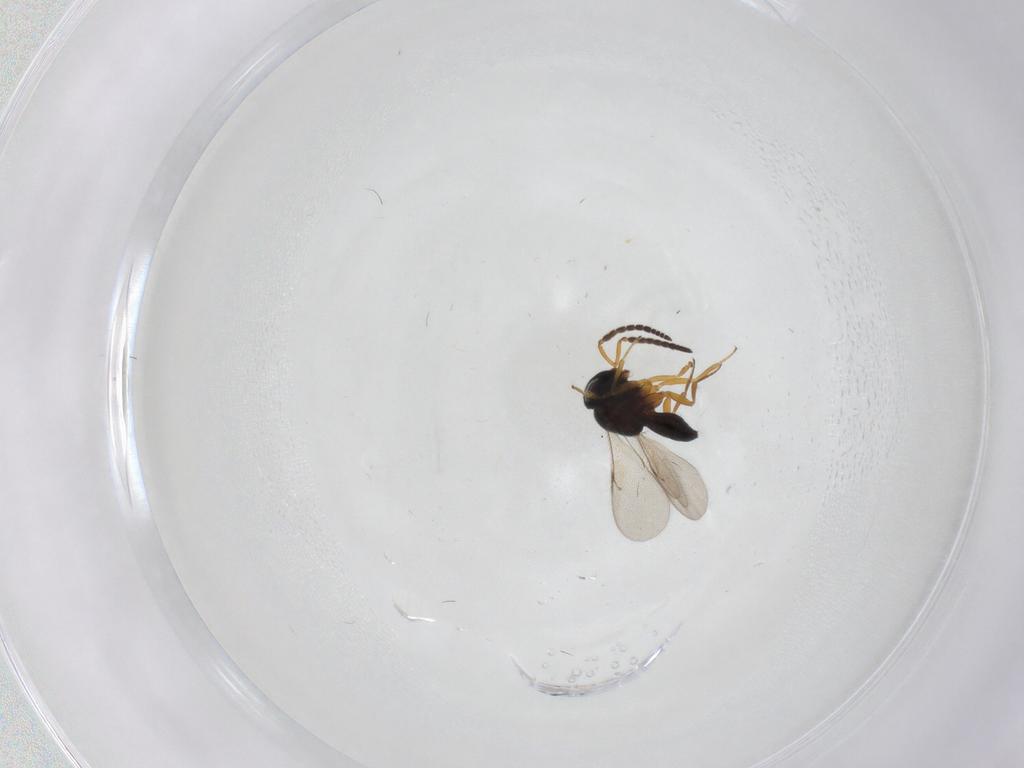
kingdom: Animalia
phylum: Arthropoda
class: Insecta
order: Coleoptera
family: Curculionidae
